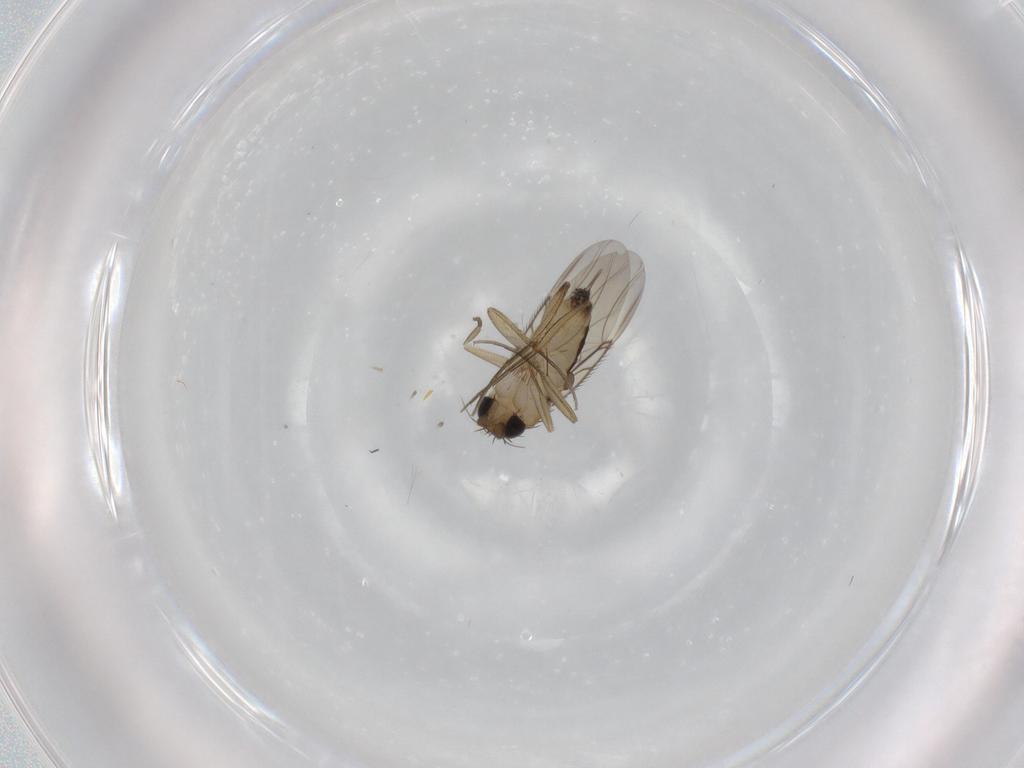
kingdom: Animalia
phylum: Arthropoda
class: Insecta
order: Diptera
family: Phoridae
